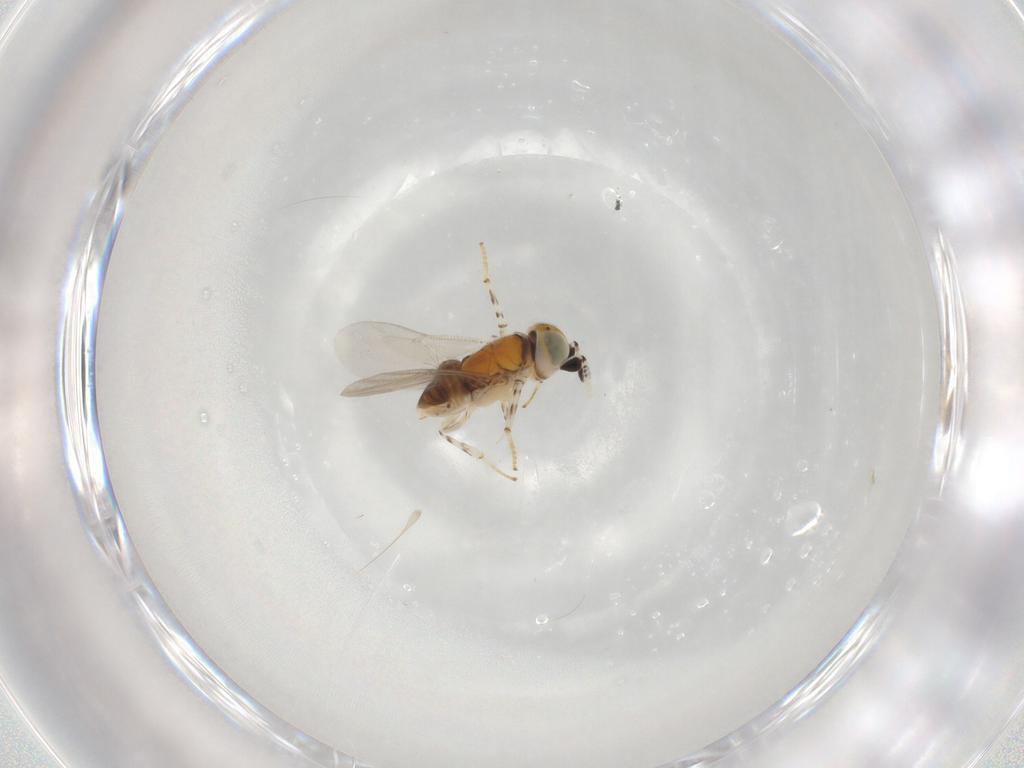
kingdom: Animalia
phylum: Arthropoda
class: Insecta
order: Hymenoptera
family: Encyrtidae
